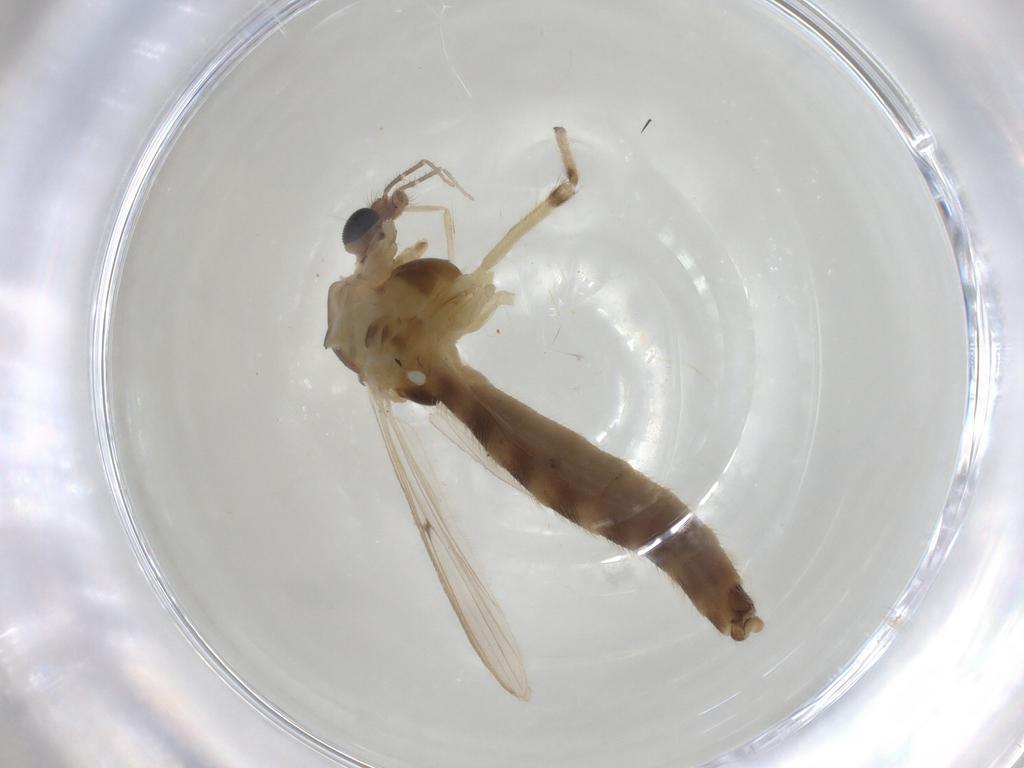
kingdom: Animalia
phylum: Arthropoda
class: Insecta
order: Diptera
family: Chironomidae
